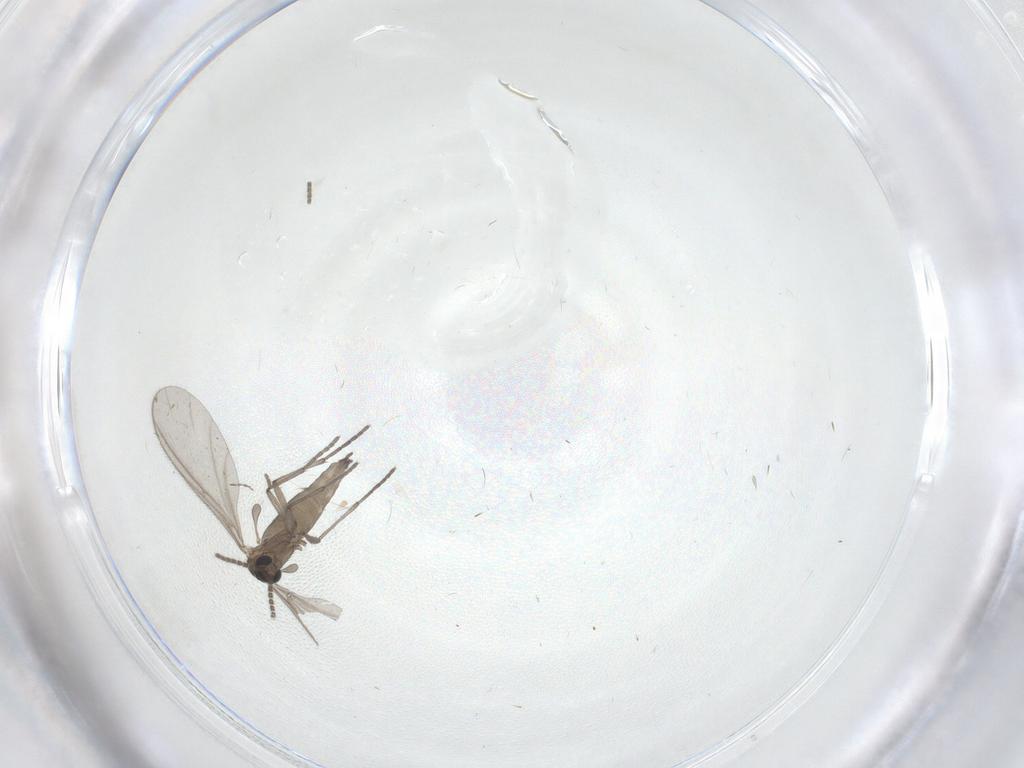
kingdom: Animalia
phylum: Arthropoda
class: Insecta
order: Diptera
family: Sciaridae
